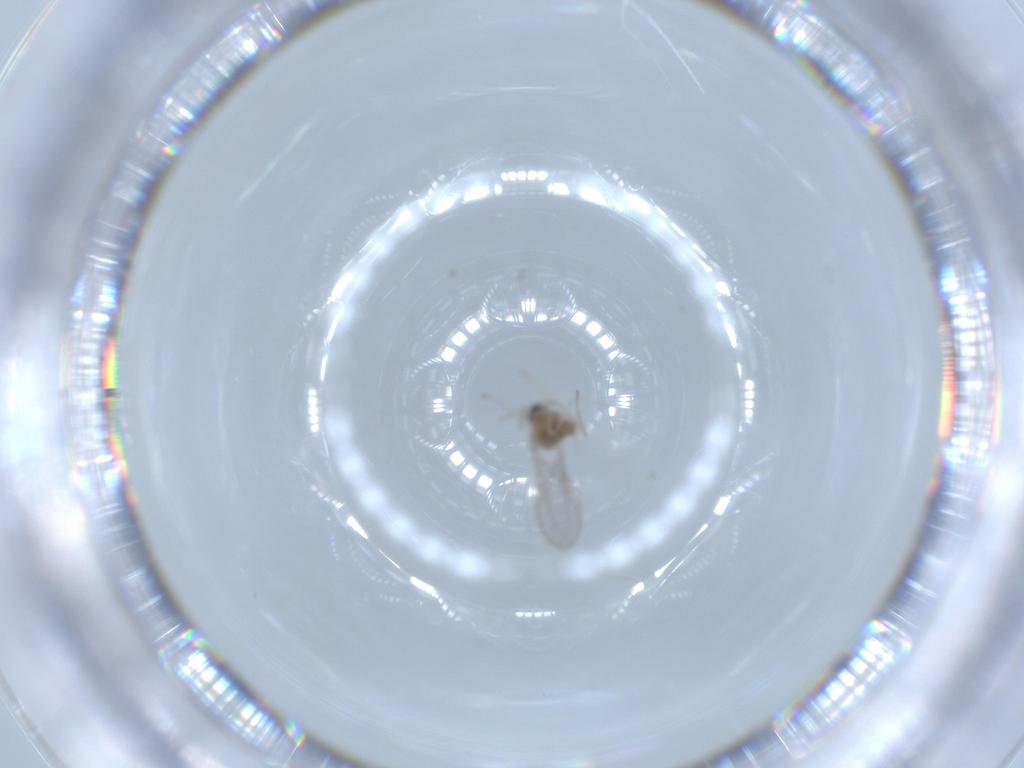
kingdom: Animalia
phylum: Arthropoda
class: Insecta
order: Diptera
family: Cecidomyiidae
